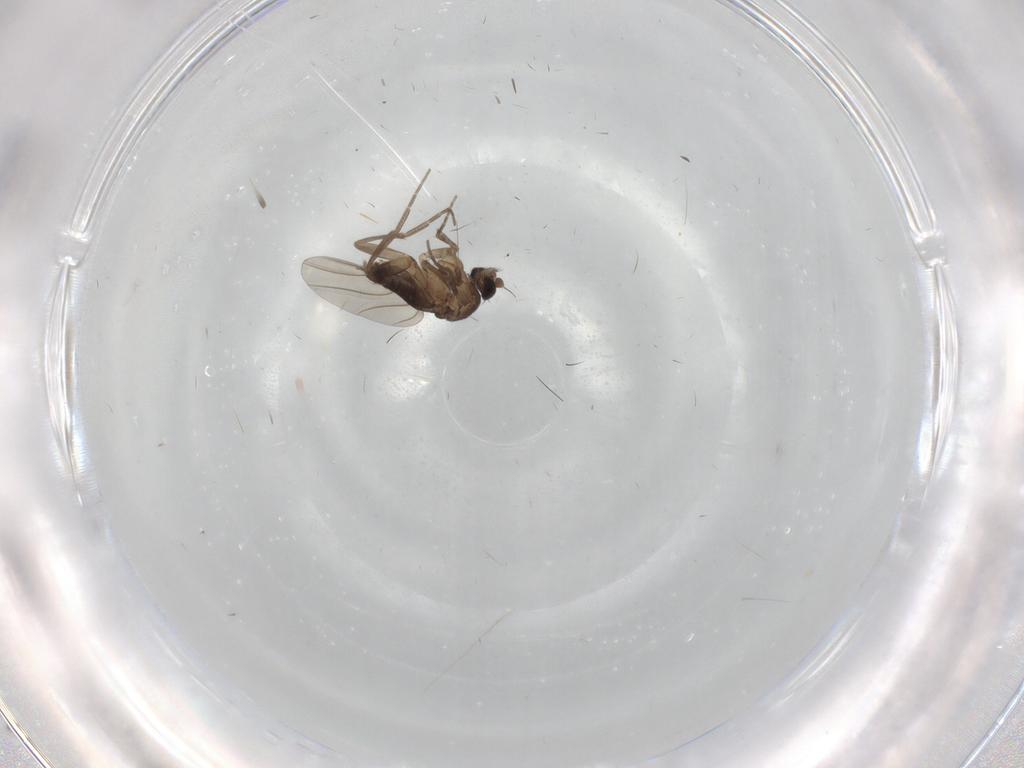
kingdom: Animalia
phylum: Arthropoda
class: Insecta
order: Diptera
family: Phoridae
